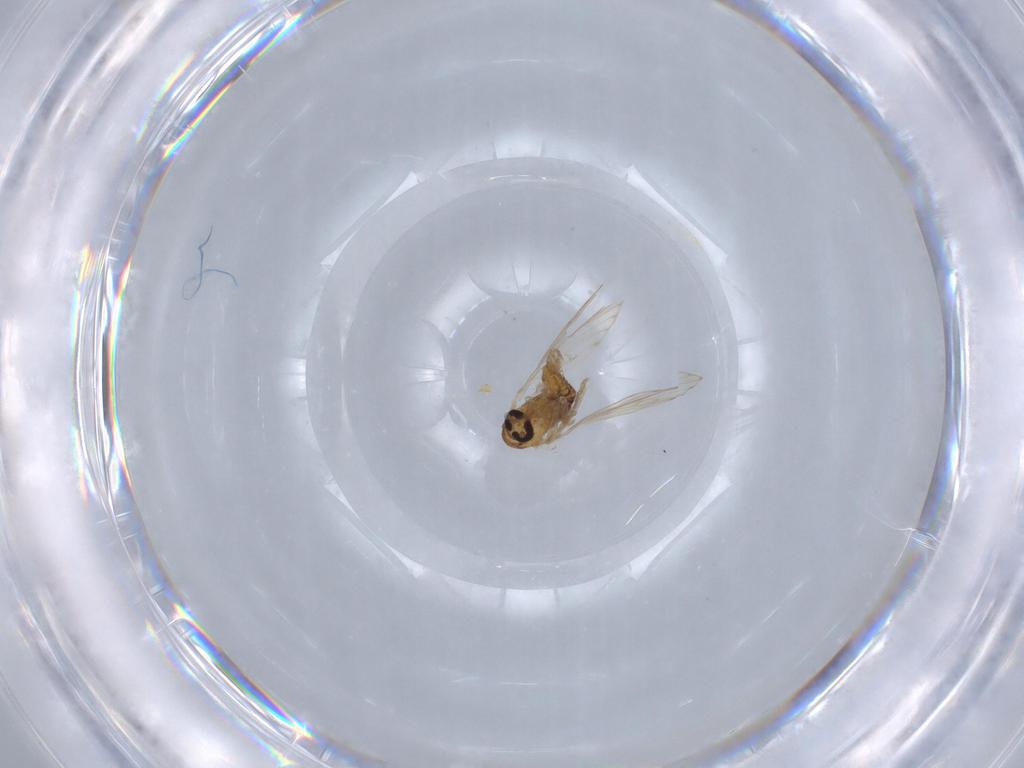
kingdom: Animalia
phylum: Arthropoda
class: Insecta
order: Diptera
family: Psychodidae
